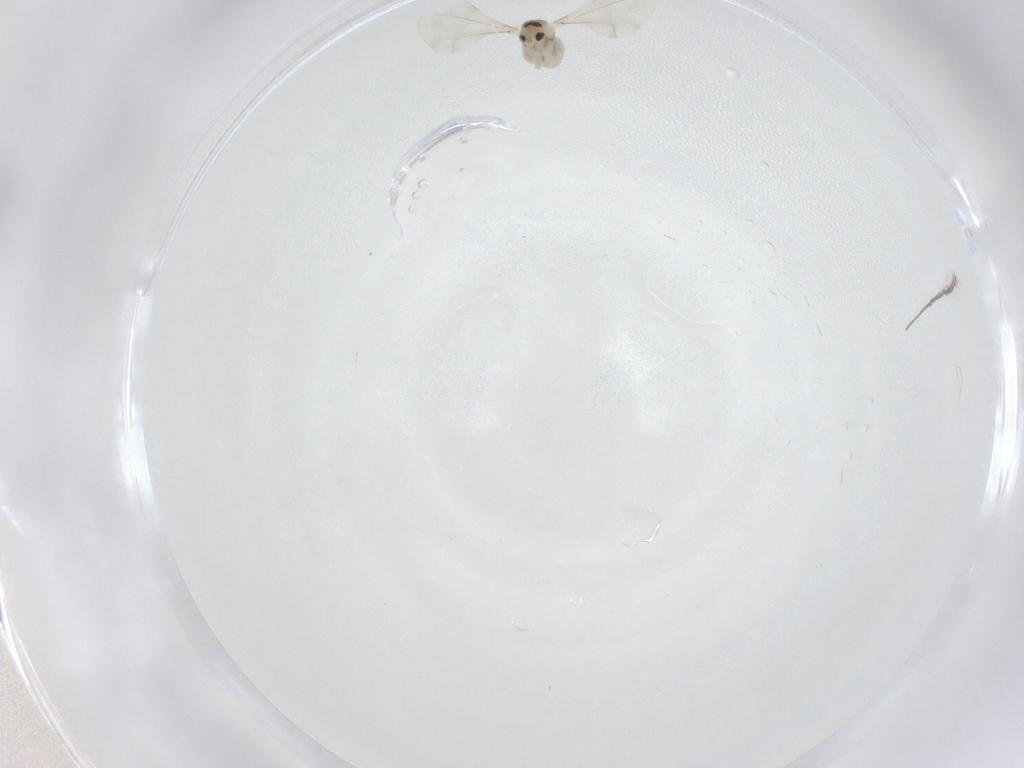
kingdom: Animalia
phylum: Arthropoda
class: Insecta
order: Diptera
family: Cecidomyiidae
